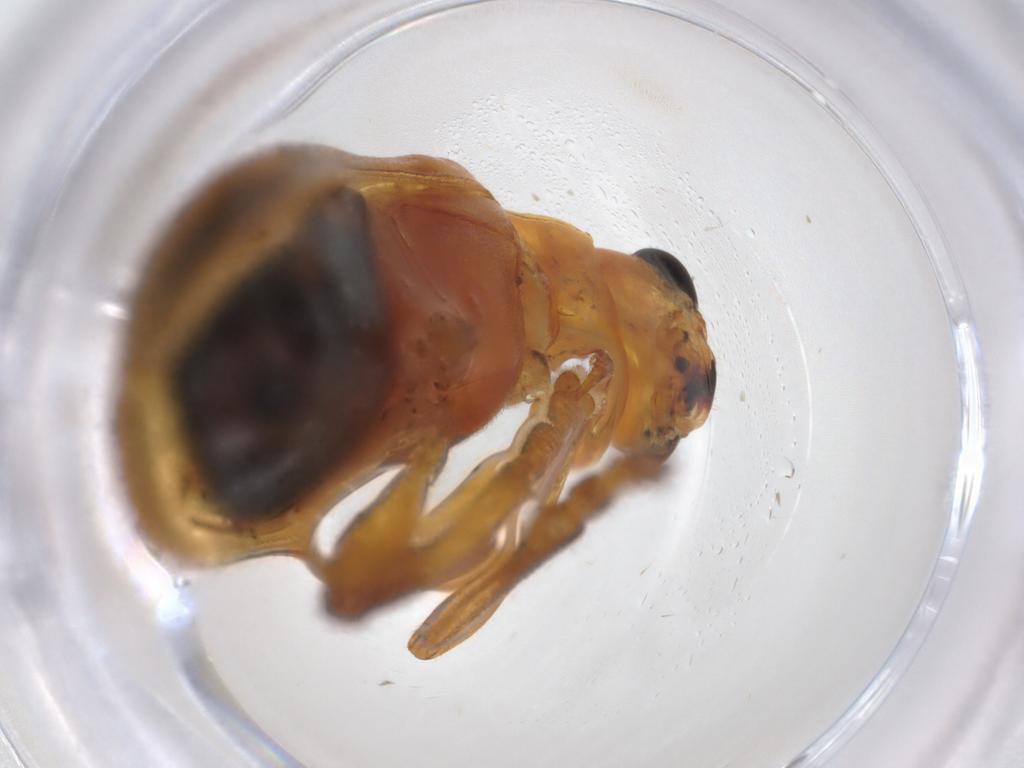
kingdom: Animalia
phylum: Arthropoda
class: Insecta
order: Coleoptera
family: Chrysomelidae
